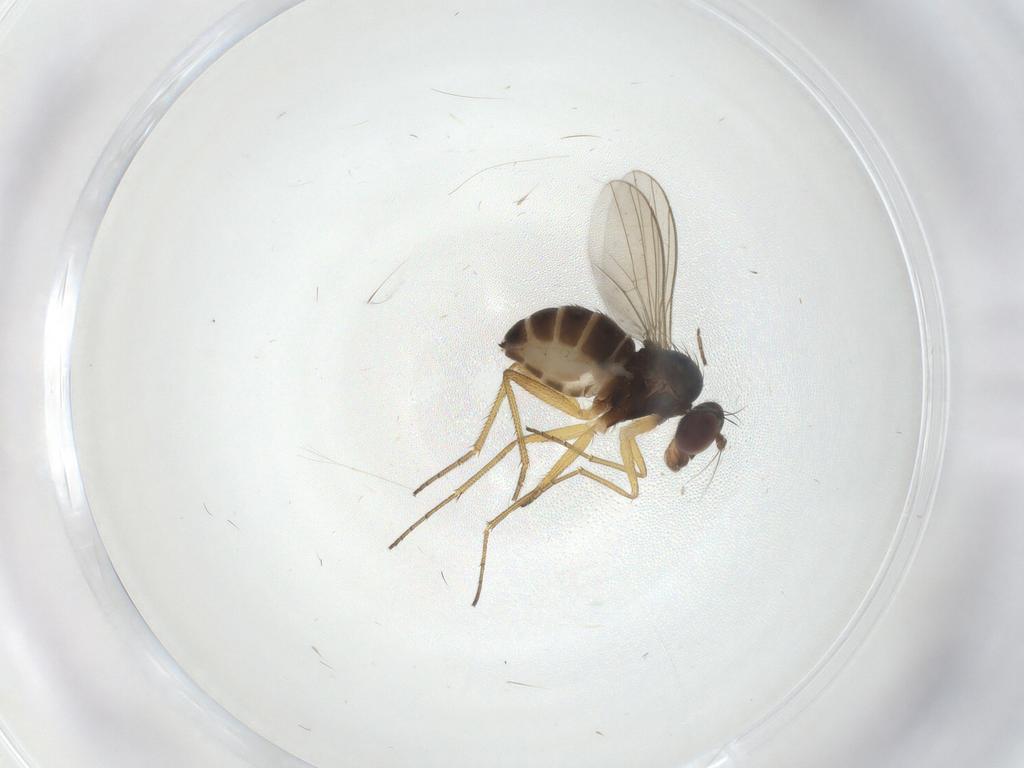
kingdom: Animalia
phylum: Arthropoda
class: Insecta
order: Diptera
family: Dolichopodidae
